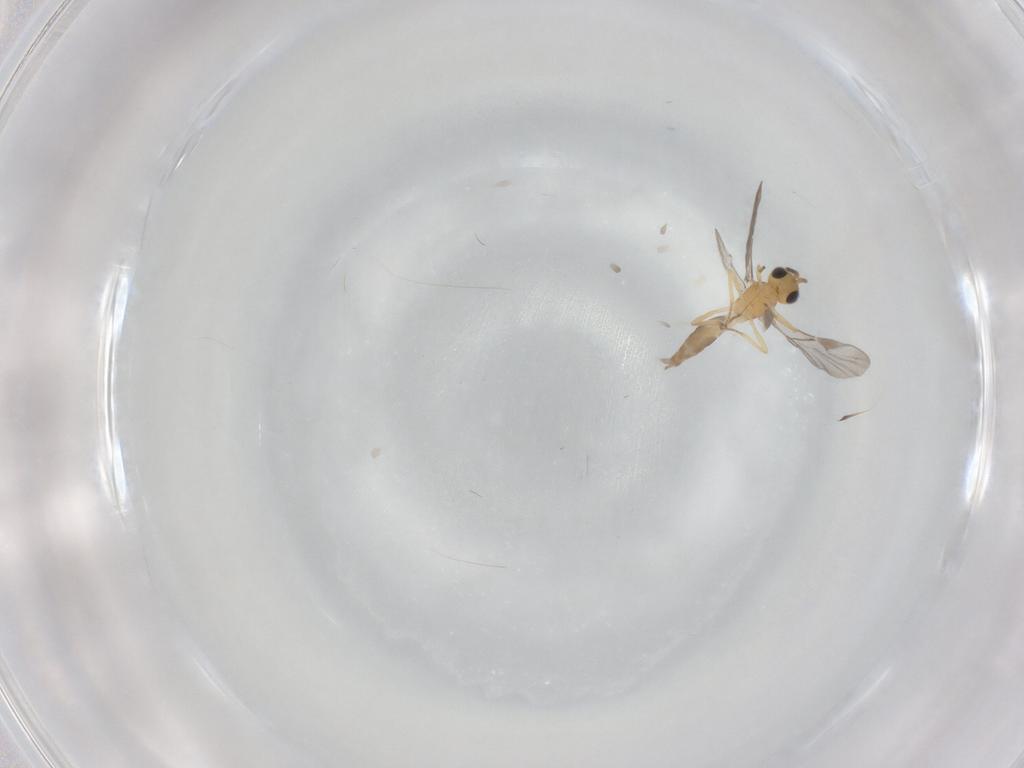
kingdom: Animalia
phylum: Arthropoda
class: Insecta
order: Hymenoptera
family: Braconidae
